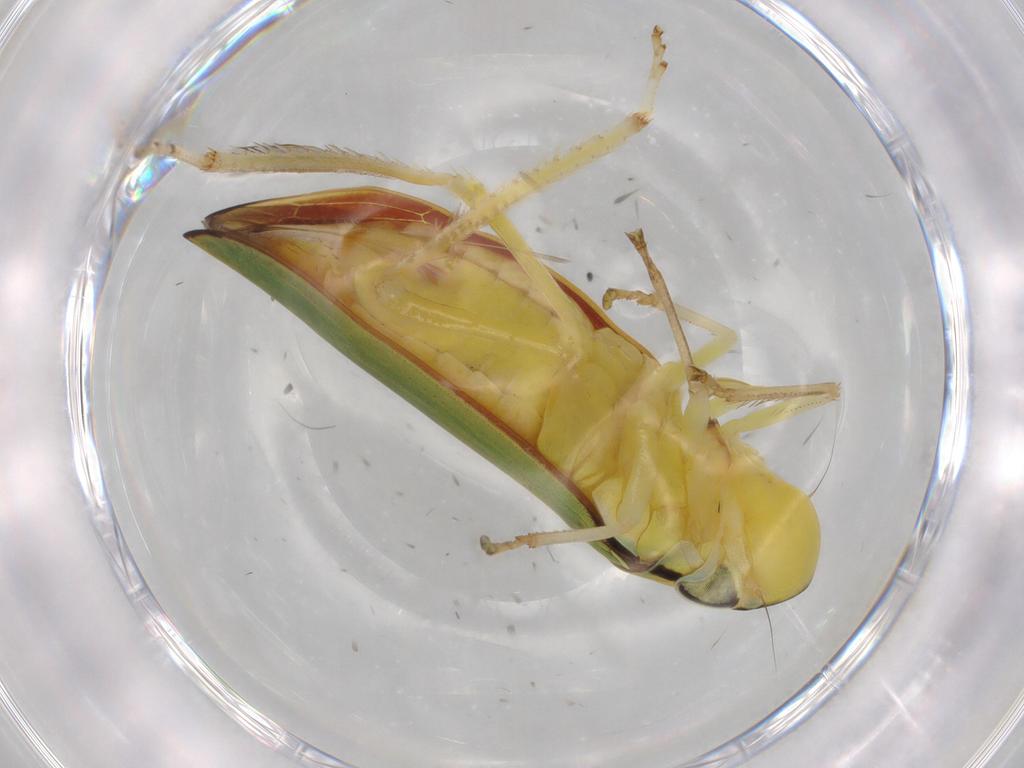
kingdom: Animalia
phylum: Arthropoda
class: Insecta
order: Hemiptera
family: Cicadellidae
